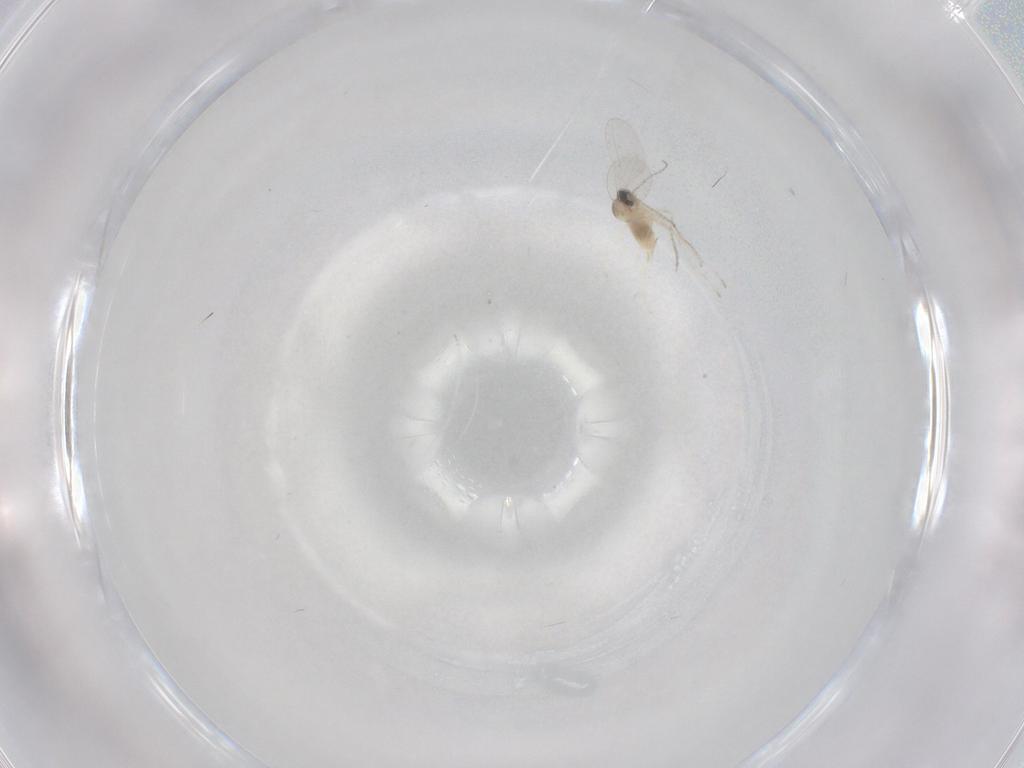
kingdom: Animalia
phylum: Arthropoda
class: Insecta
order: Diptera
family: Cecidomyiidae
